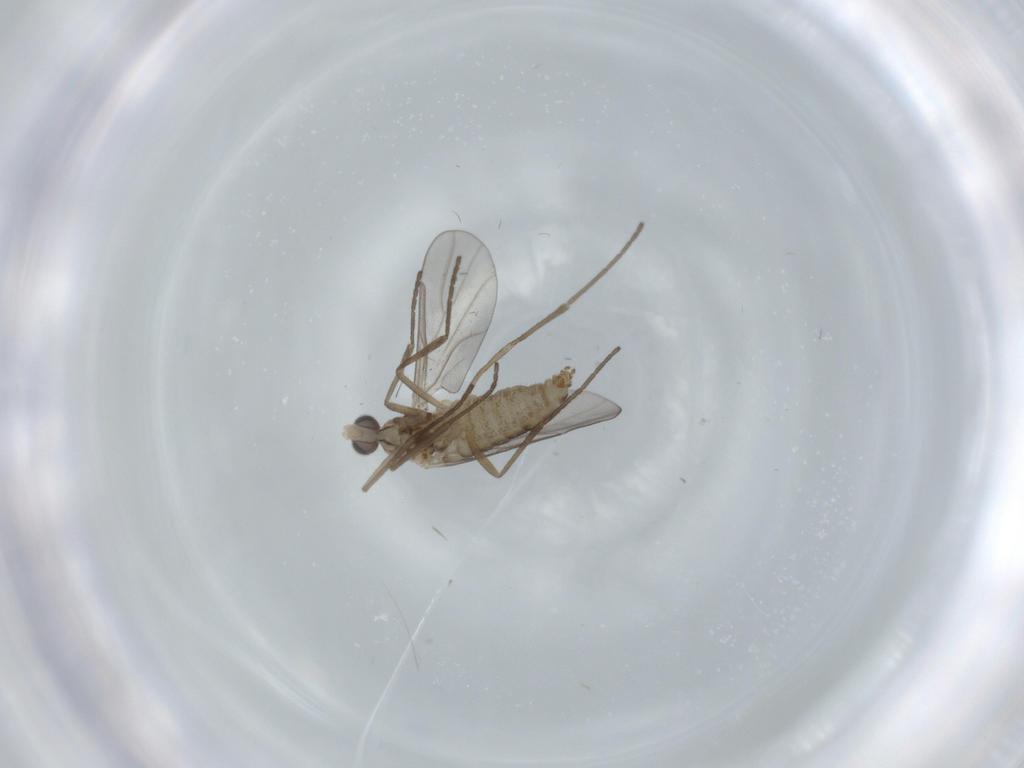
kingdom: Animalia
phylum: Arthropoda
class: Insecta
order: Diptera
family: Cecidomyiidae
